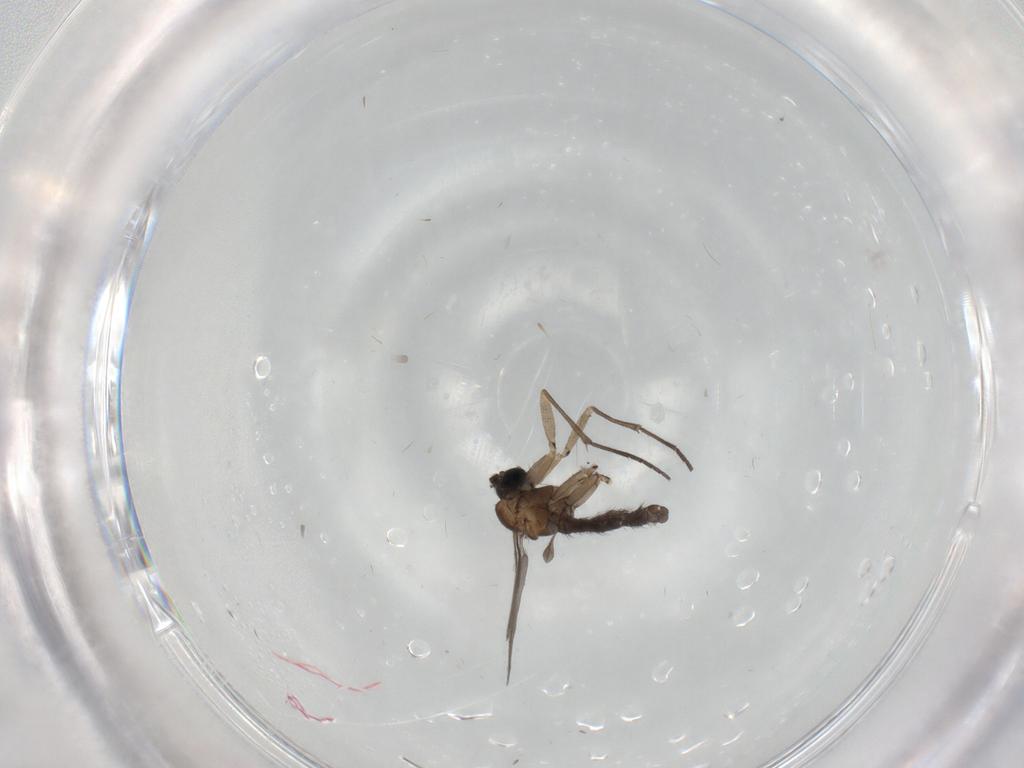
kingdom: Animalia
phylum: Arthropoda
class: Insecta
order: Diptera
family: Sciaridae
